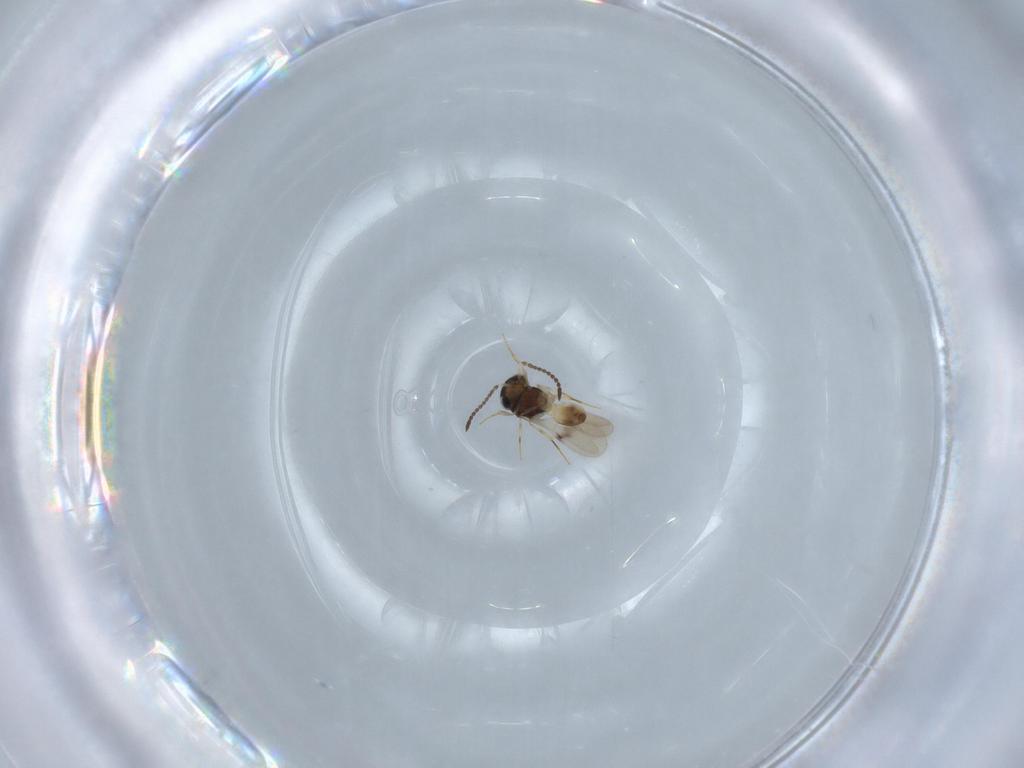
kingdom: Animalia
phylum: Arthropoda
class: Insecta
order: Hymenoptera
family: Scelionidae
